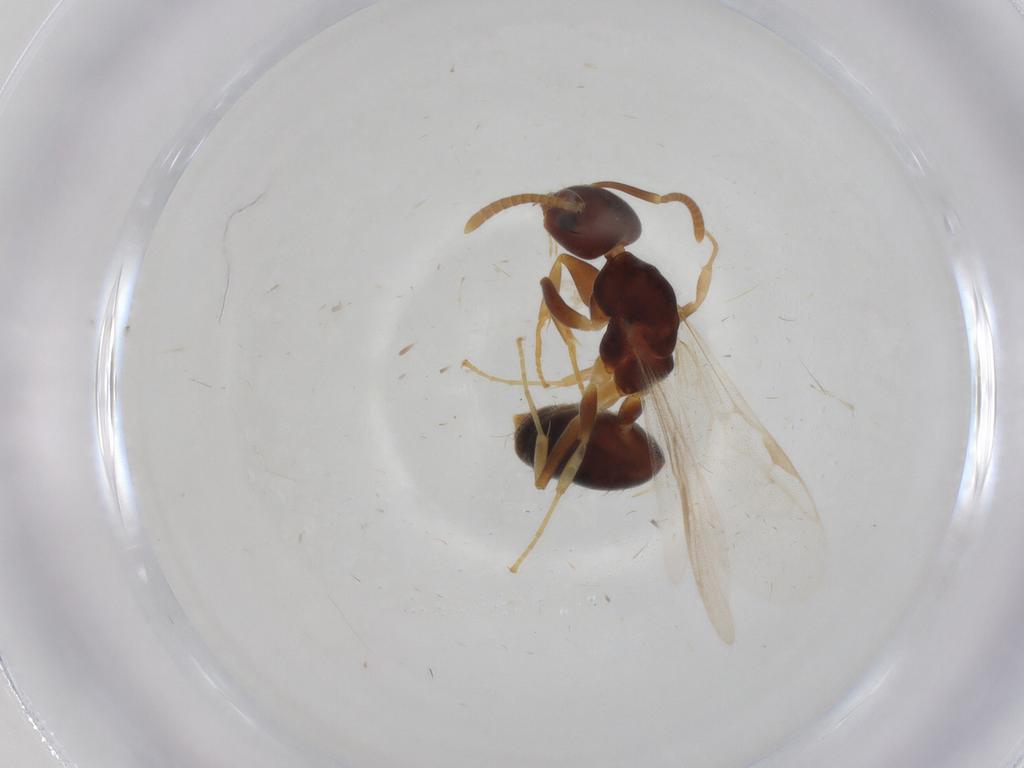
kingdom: Animalia
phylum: Arthropoda
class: Insecta
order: Hymenoptera
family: Formicidae
